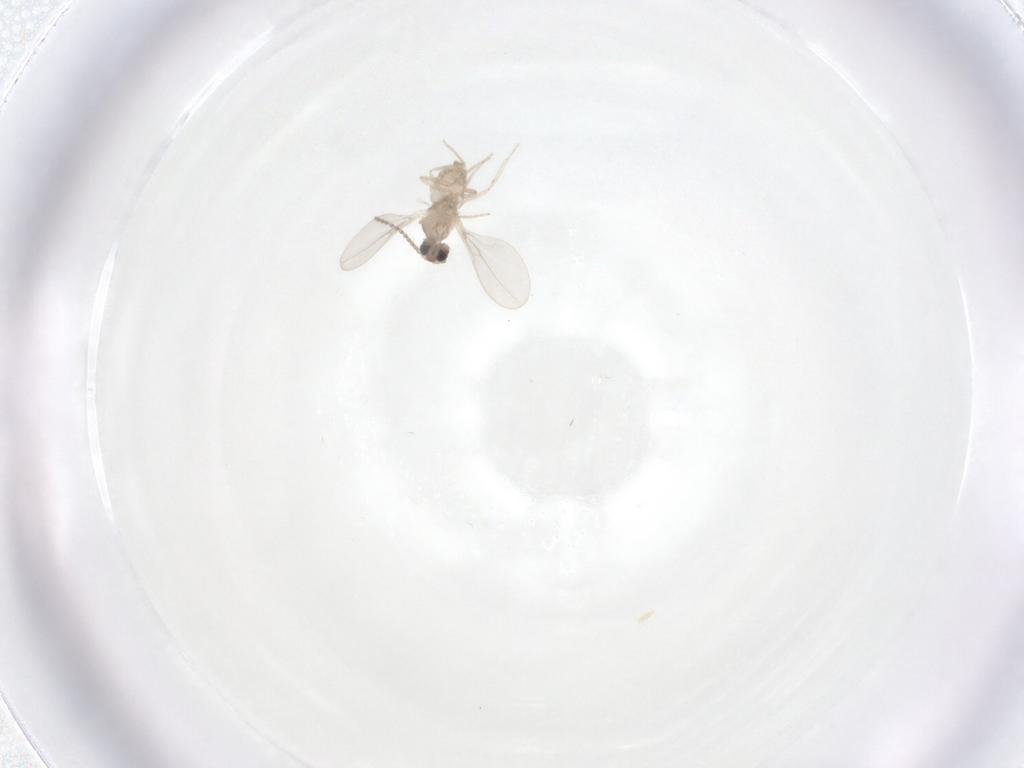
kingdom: Animalia
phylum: Arthropoda
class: Insecta
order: Diptera
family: Cecidomyiidae
